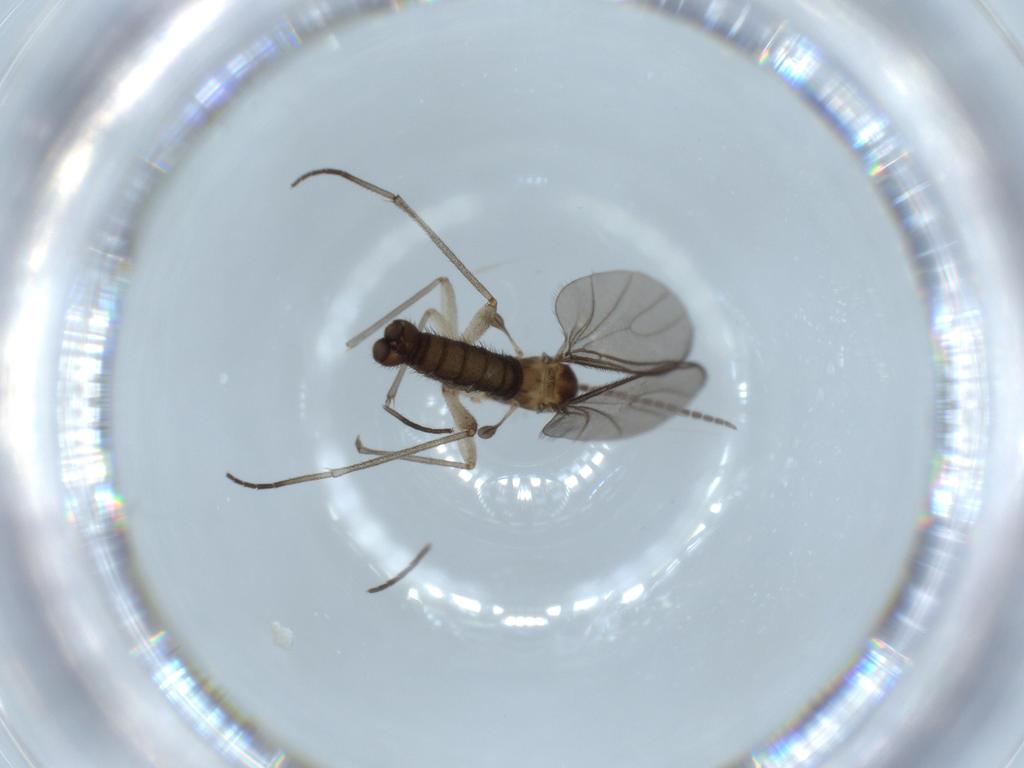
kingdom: Animalia
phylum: Arthropoda
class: Insecta
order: Diptera
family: Sciaridae
